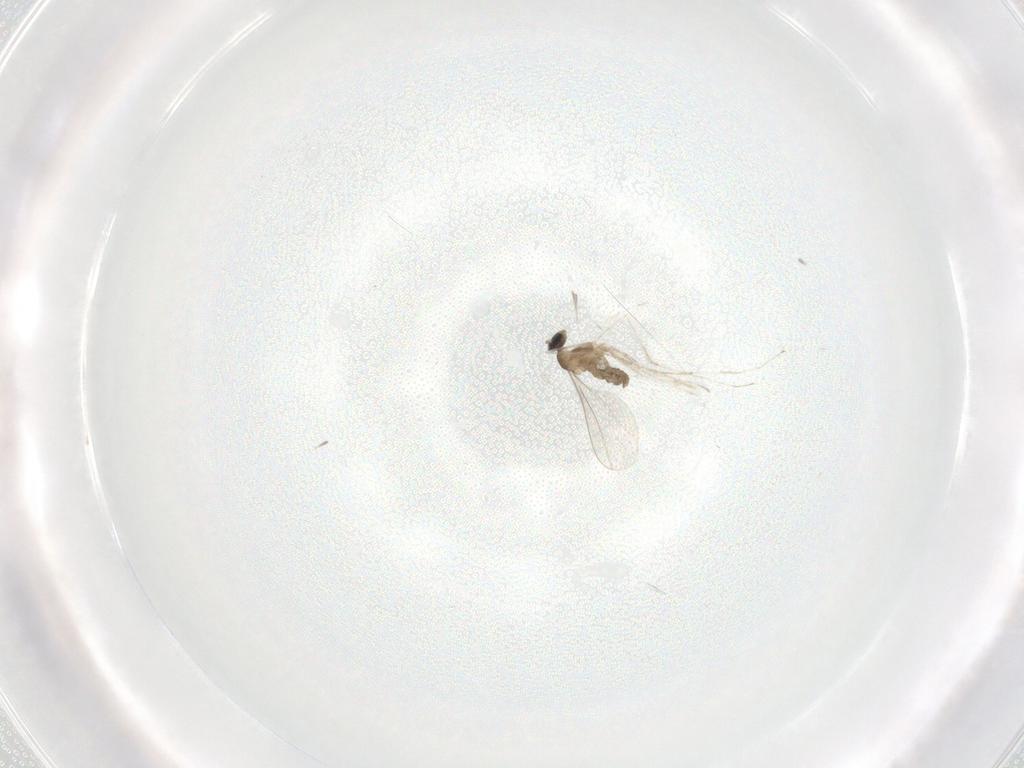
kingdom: Animalia
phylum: Arthropoda
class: Insecta
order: Diptera
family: Cecidomyiidae
